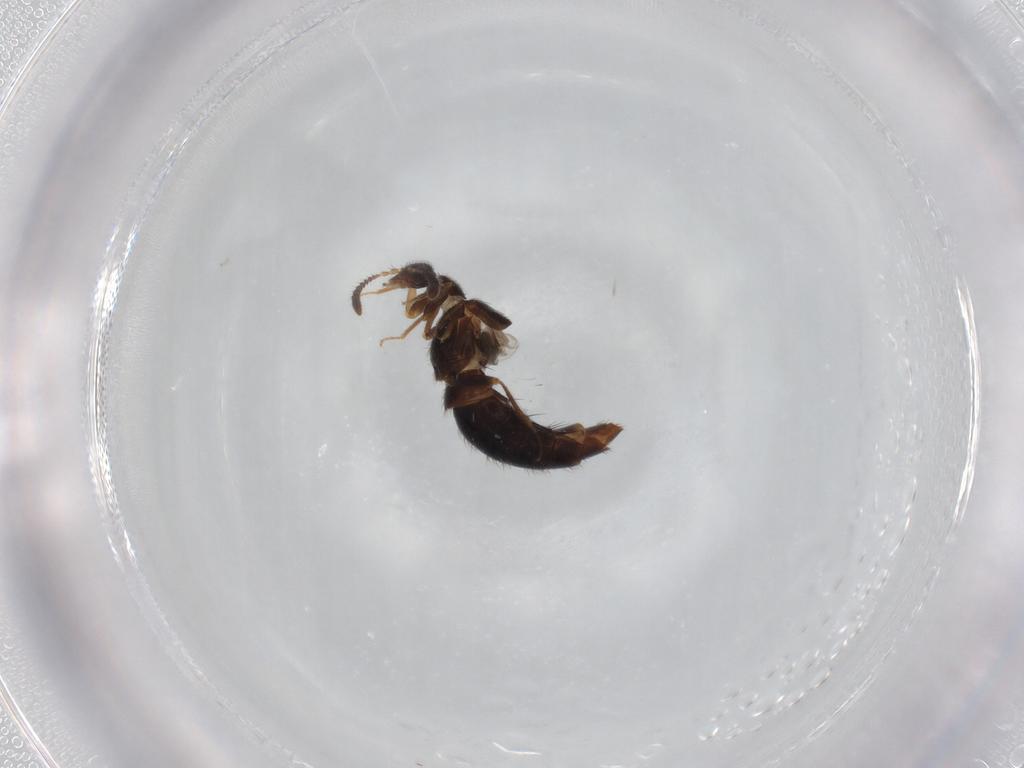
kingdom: Animalia
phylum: Arthropoda
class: Insecta
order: Coleoptera
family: Staphylinidae
